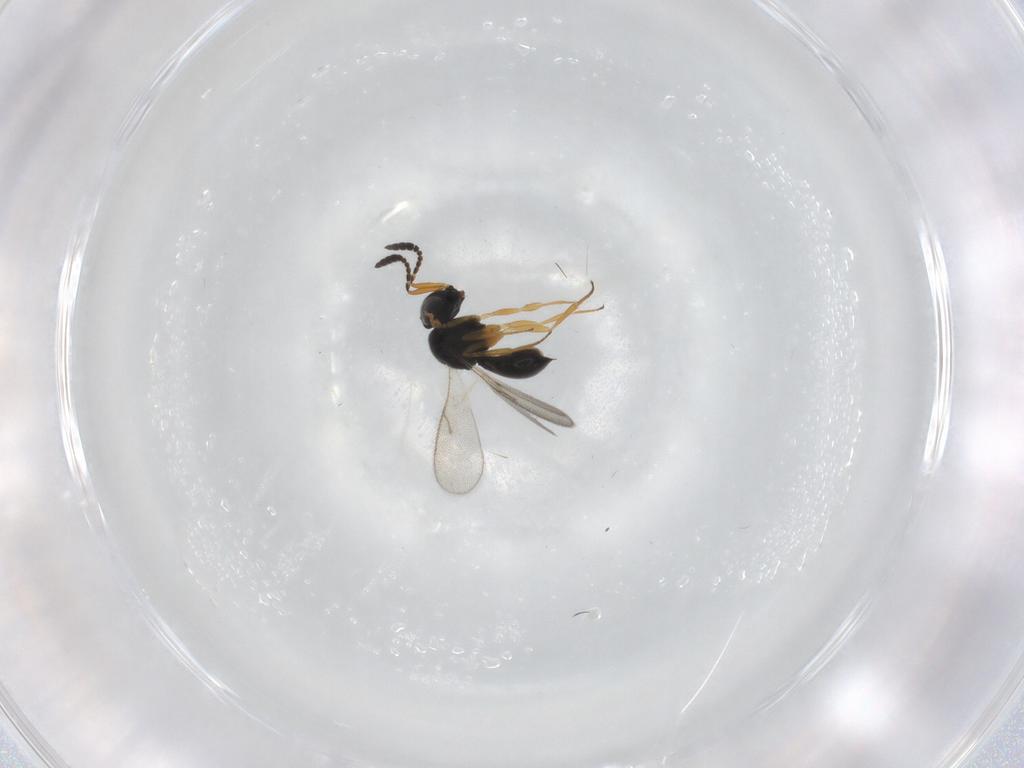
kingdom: Animalia
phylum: Arthropoda
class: Insecta
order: Hymenoptera
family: Scelionidae
